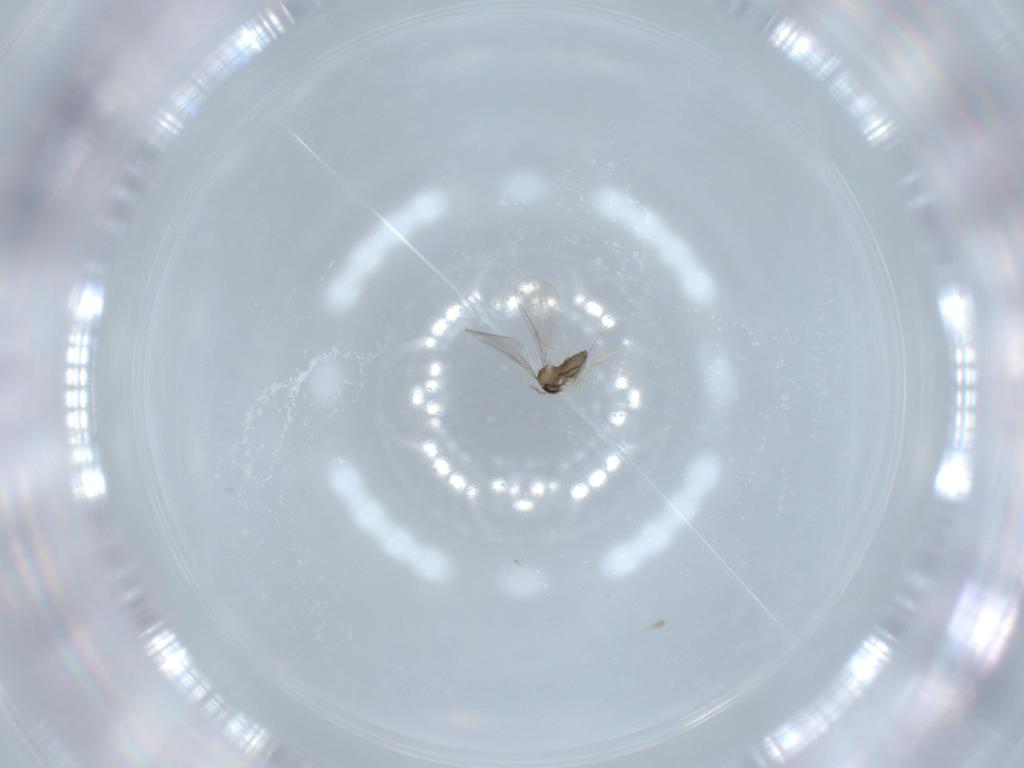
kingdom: Animalia
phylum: Arthropoda
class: Insecta
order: Diptera
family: Cecidomyiidae
